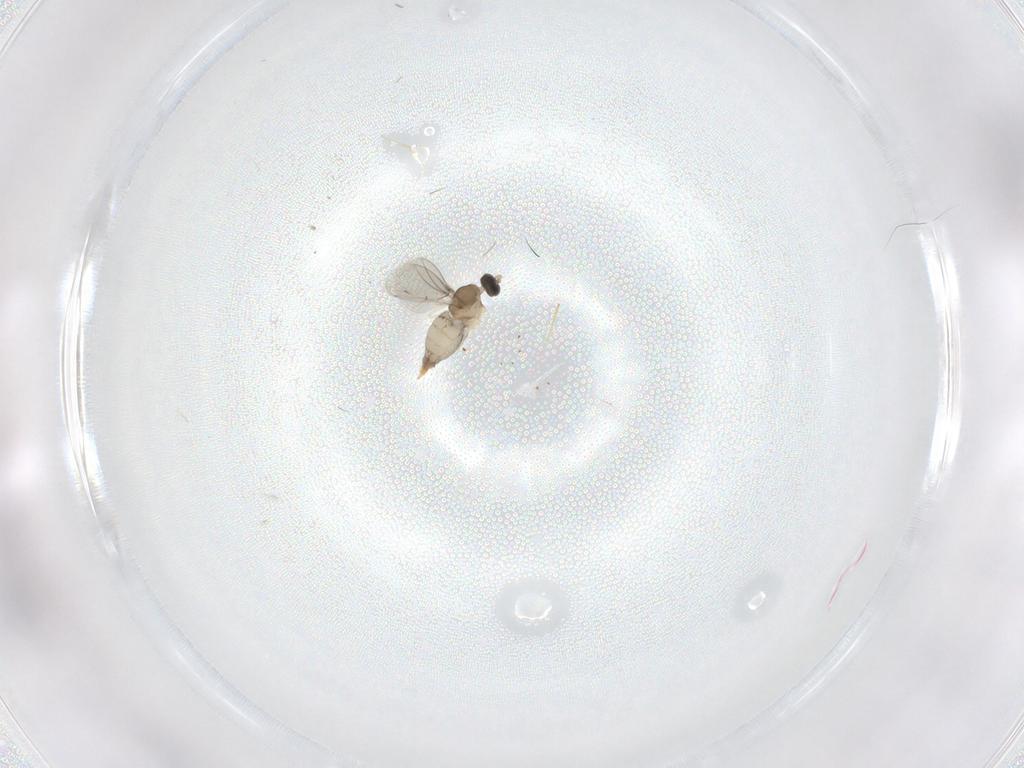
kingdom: Animalia
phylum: Arthropoda
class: Insecta
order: Diptera
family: Cecidomyiidae
